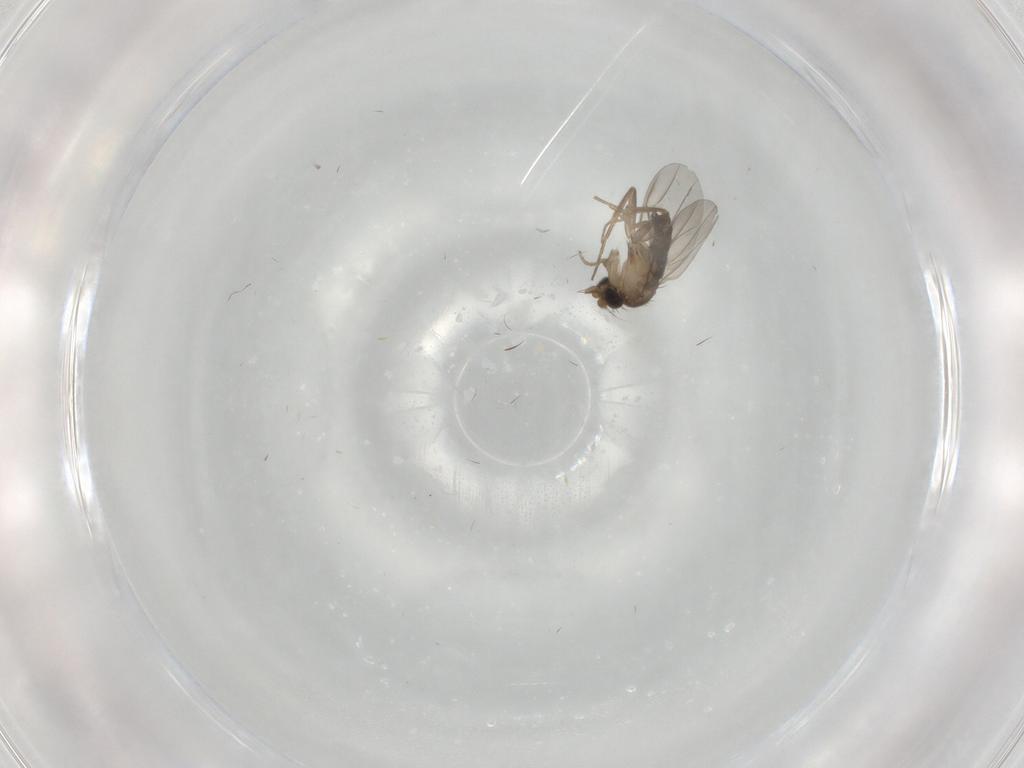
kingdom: Animalia
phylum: Arthropoda
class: Insecta
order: Diptera
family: Phoridae
